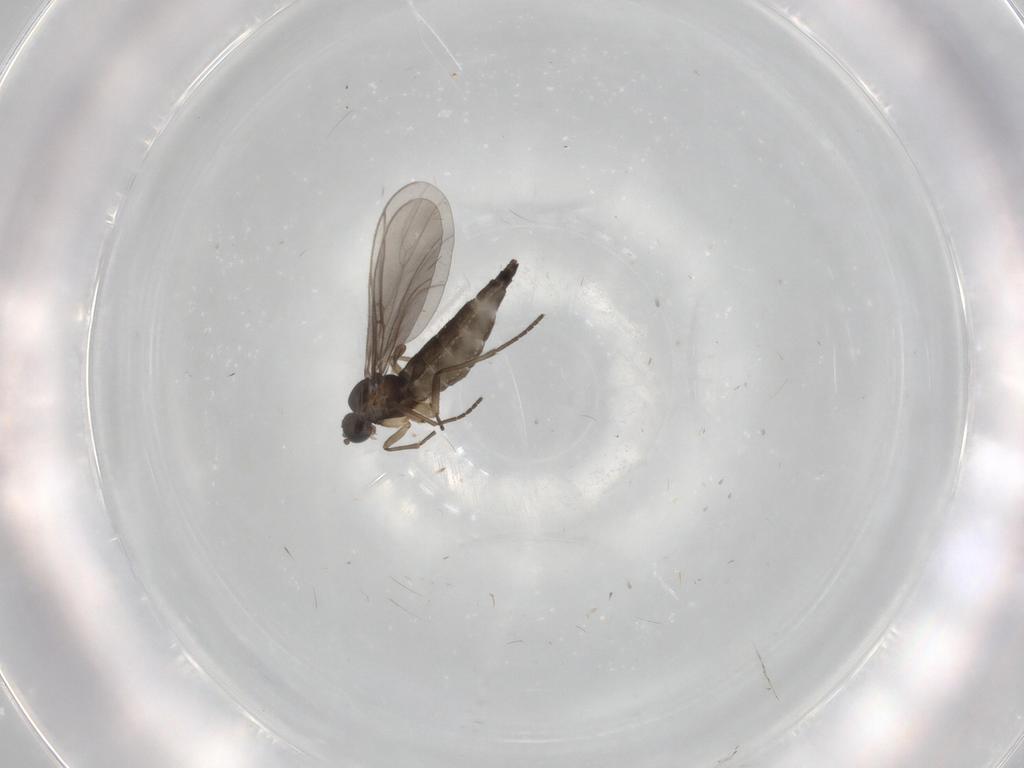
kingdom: Animalia
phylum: Arthropoda
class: Insecta
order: Diptera
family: Sciaridae
